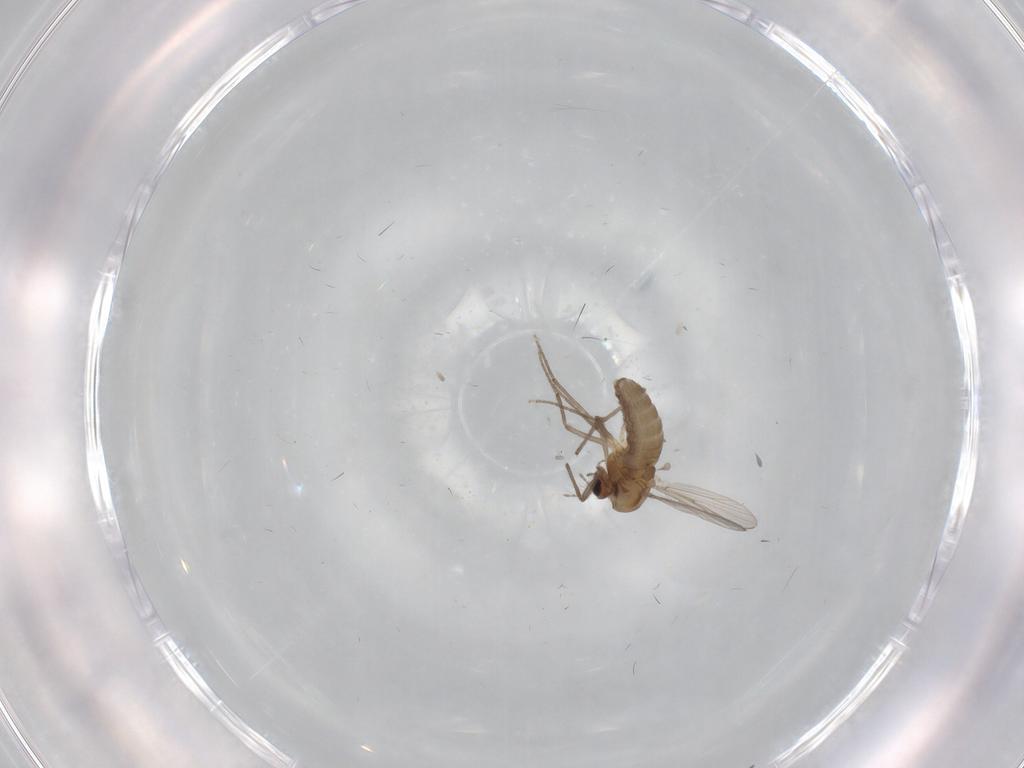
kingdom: Animalia
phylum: Arthropoda
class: Insecta
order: Diptera
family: Chironomidae
